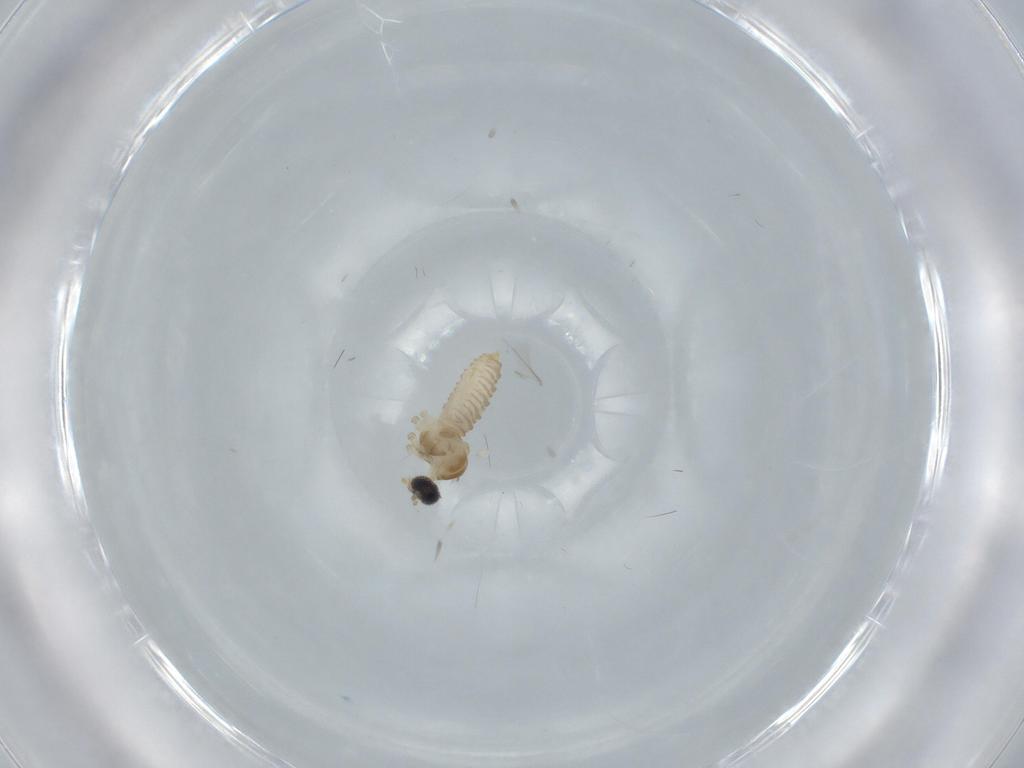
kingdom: Animalia
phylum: Arthropoda
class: Insecta
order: Diptera
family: Cecidomyiidae
